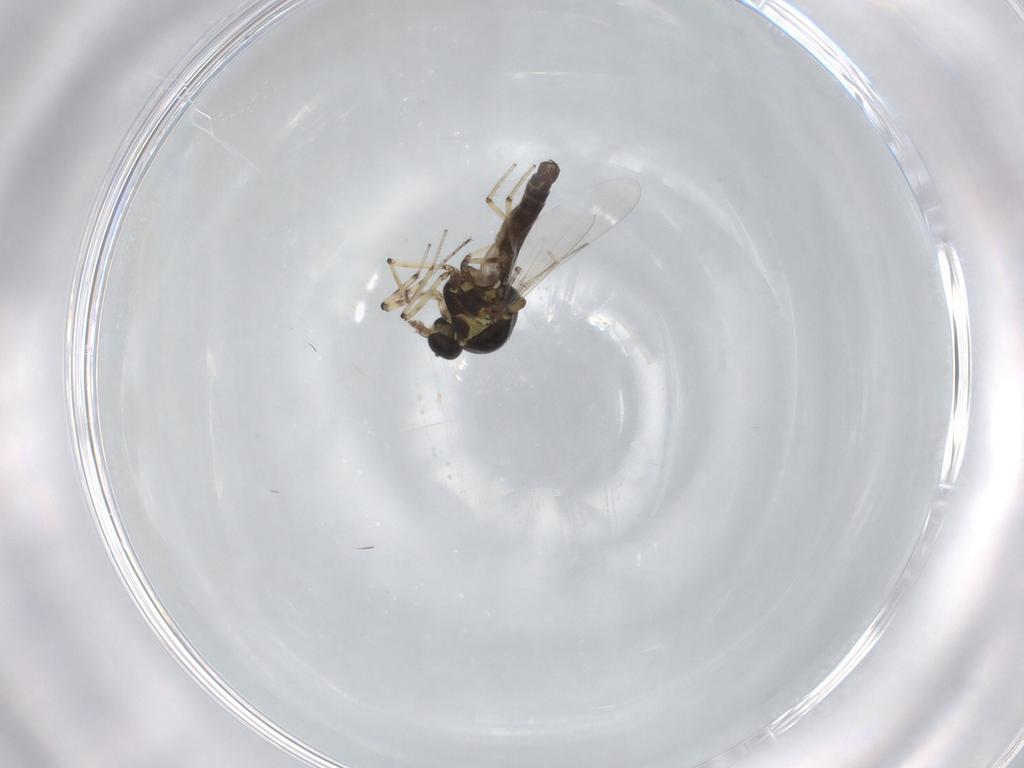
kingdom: Animalia
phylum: Arthropoda
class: Insecta
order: Diptera
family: Ceratopogonidae
